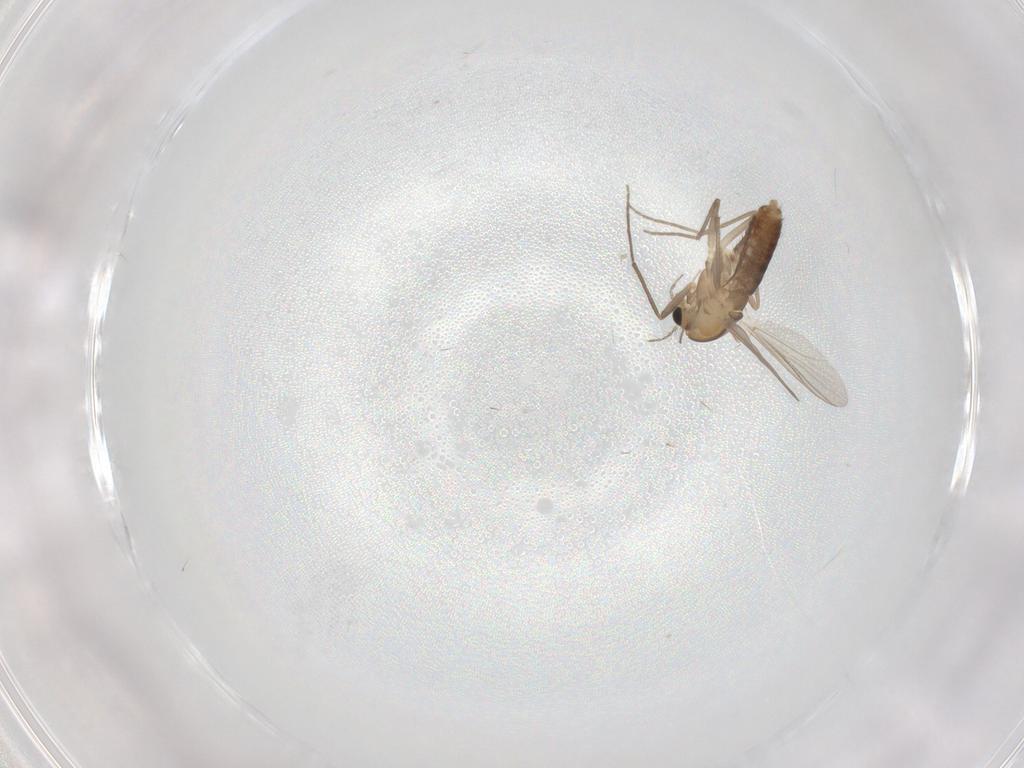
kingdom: Animalia
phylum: Arthropoda
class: Insecta
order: Diptera
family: Chironomidae
